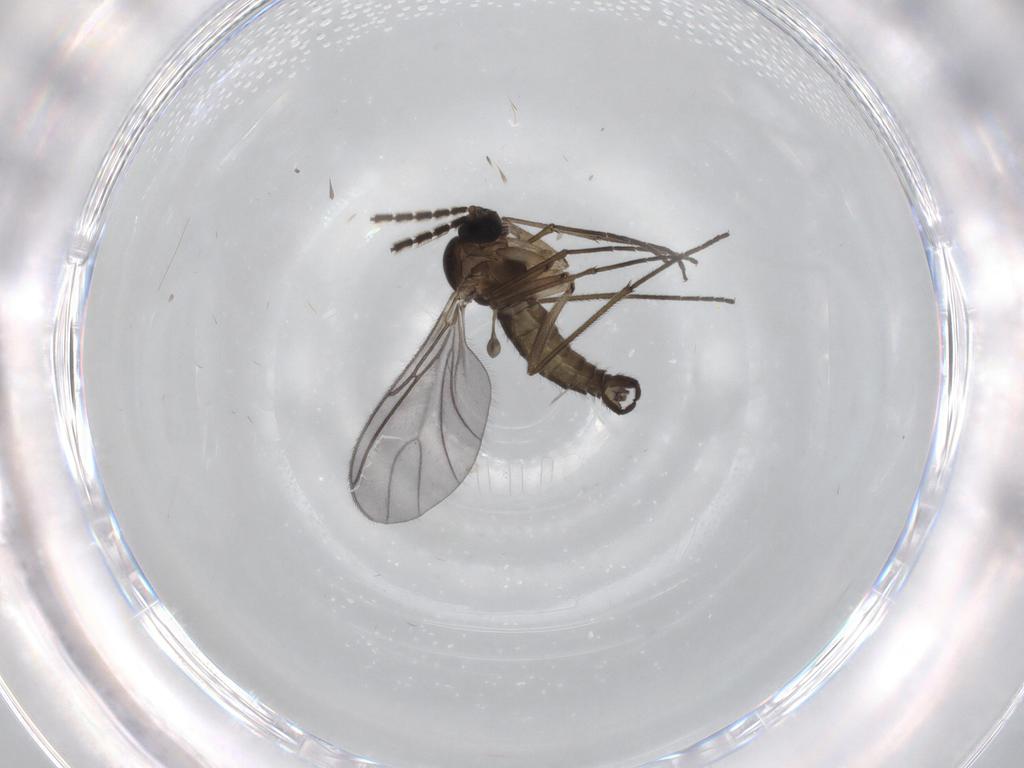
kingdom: Animalia
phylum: Arthropoda
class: Insecta
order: Diptera
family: Sciaridae
